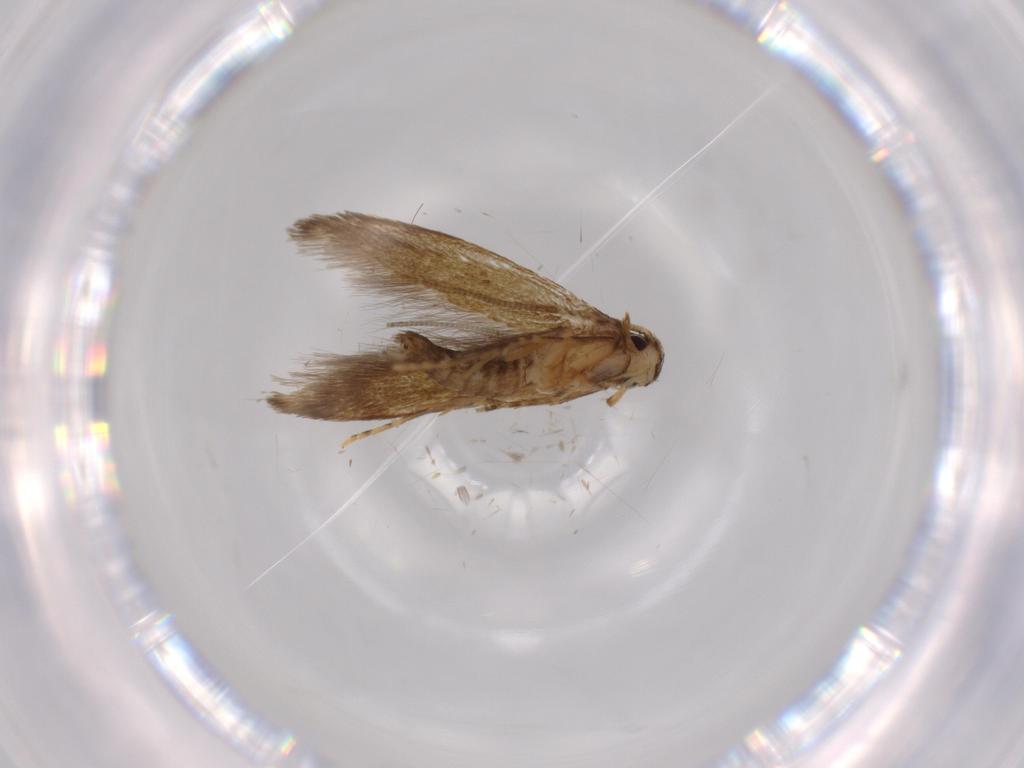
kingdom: Animalia
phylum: Arthropoda
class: Insecta
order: Lepidoptera
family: Tineidae
